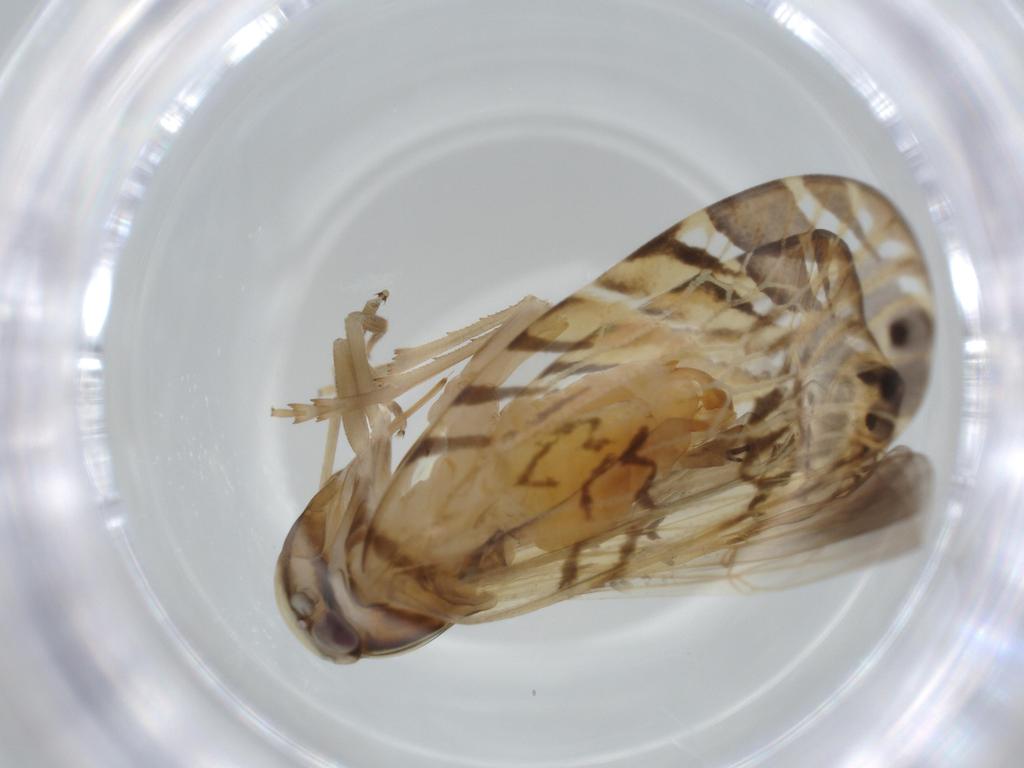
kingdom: Animalia
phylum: Arthropoda
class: Insecta
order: Hemiptera
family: Cixiidae
